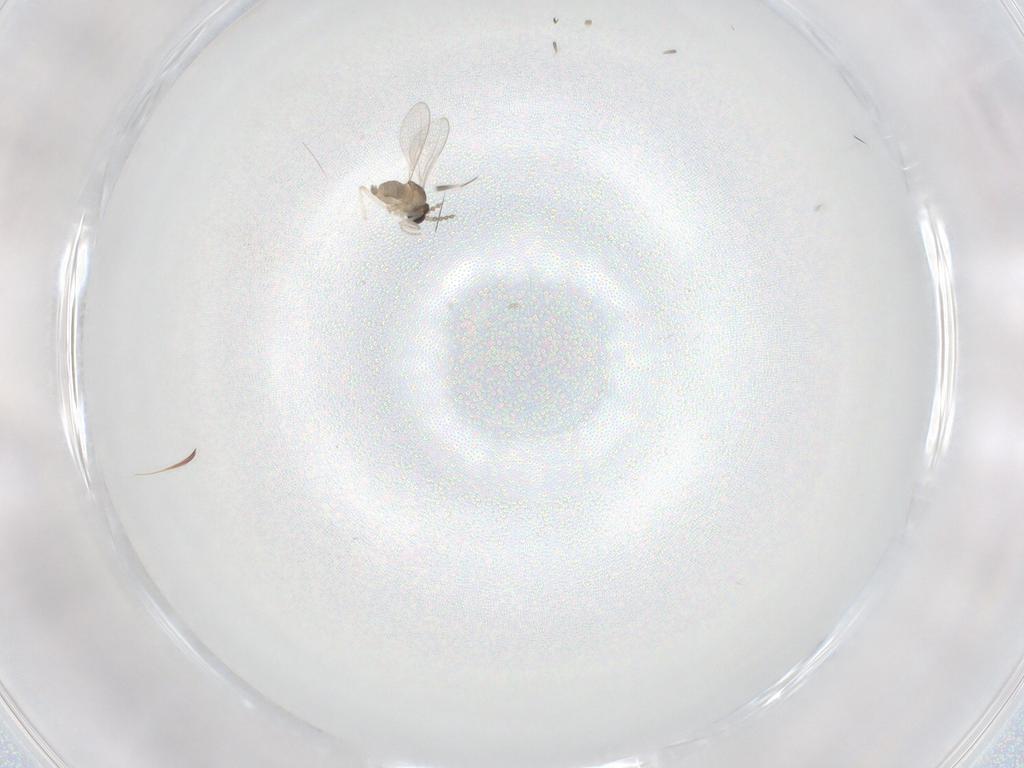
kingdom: Animalia
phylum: Arthropoda
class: Insecta
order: Diptera
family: Cecidomyiidae
